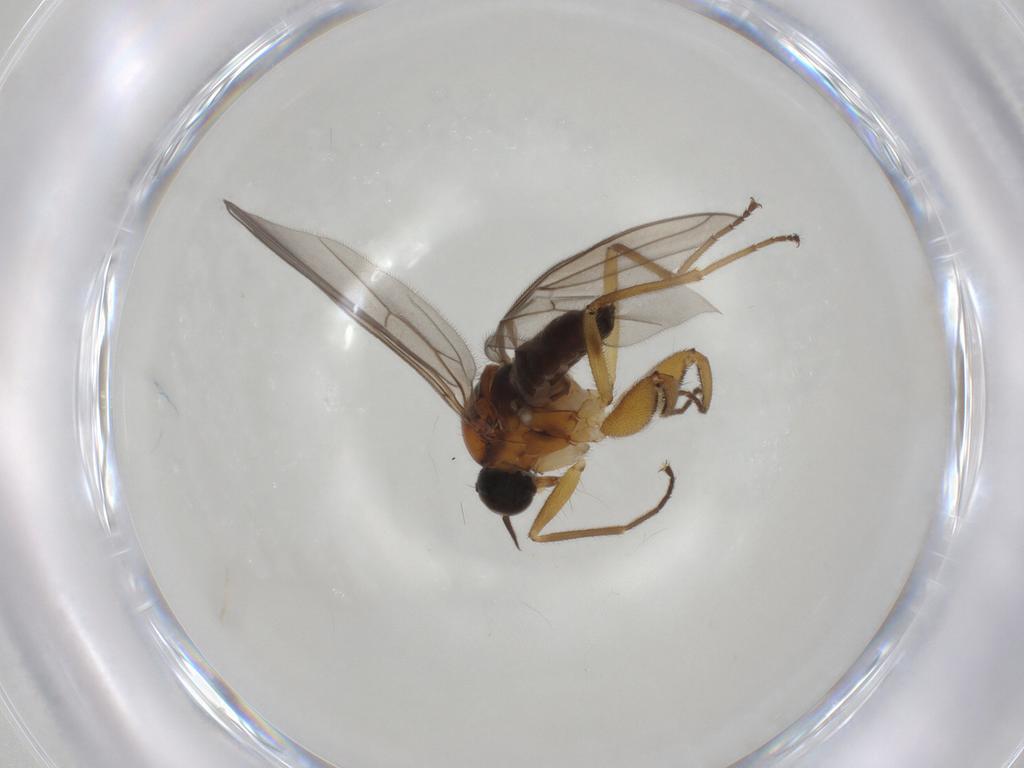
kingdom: Animalia
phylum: Arthropoda
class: Insecta
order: Diptera
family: Hybotidae
